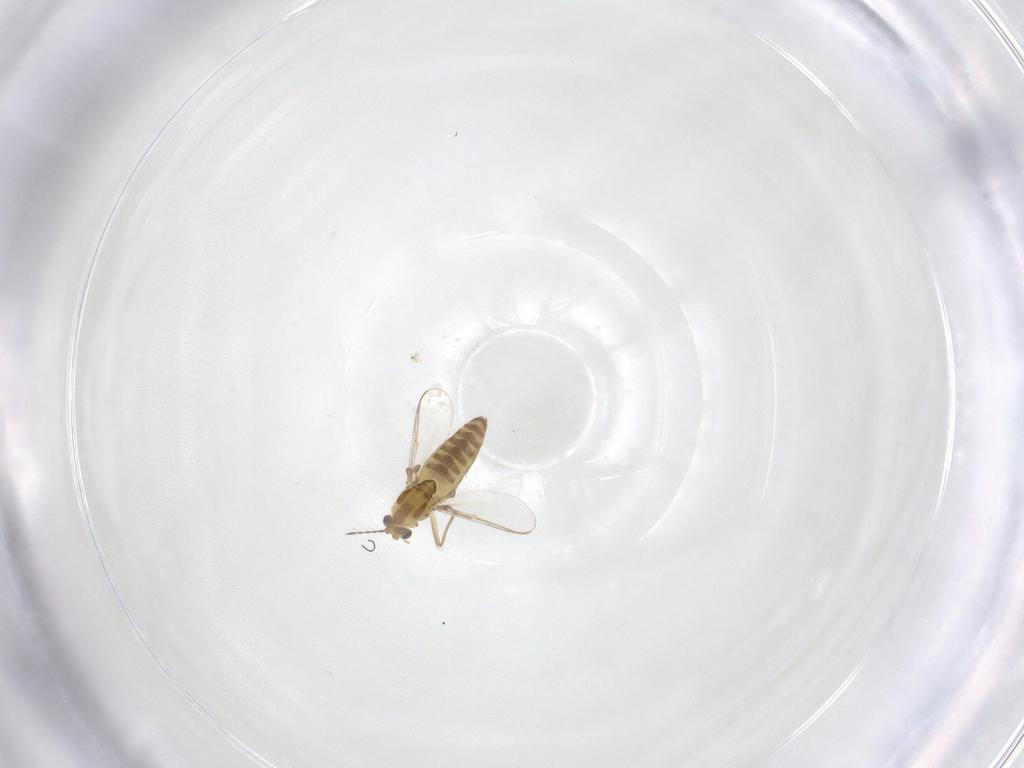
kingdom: Animalia
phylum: Arthropoda
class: Insecta
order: Diptera
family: Chironomidae
